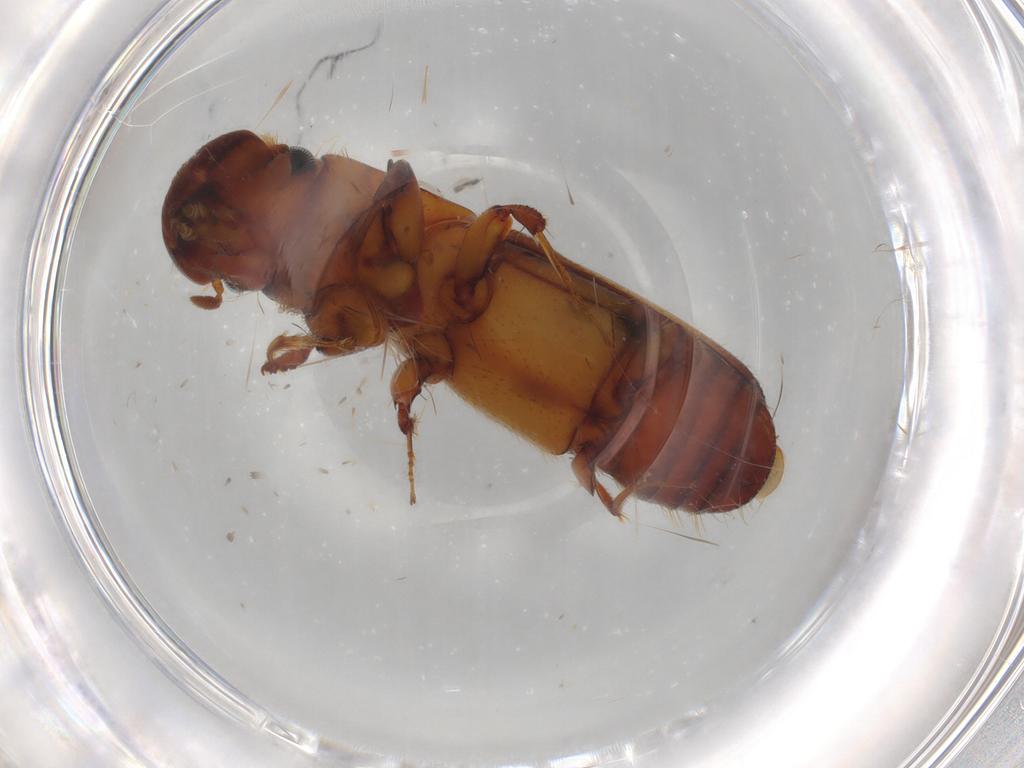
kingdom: Animalia
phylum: Arthropoda
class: Insecta
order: Coleoptera
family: Curculionidae
